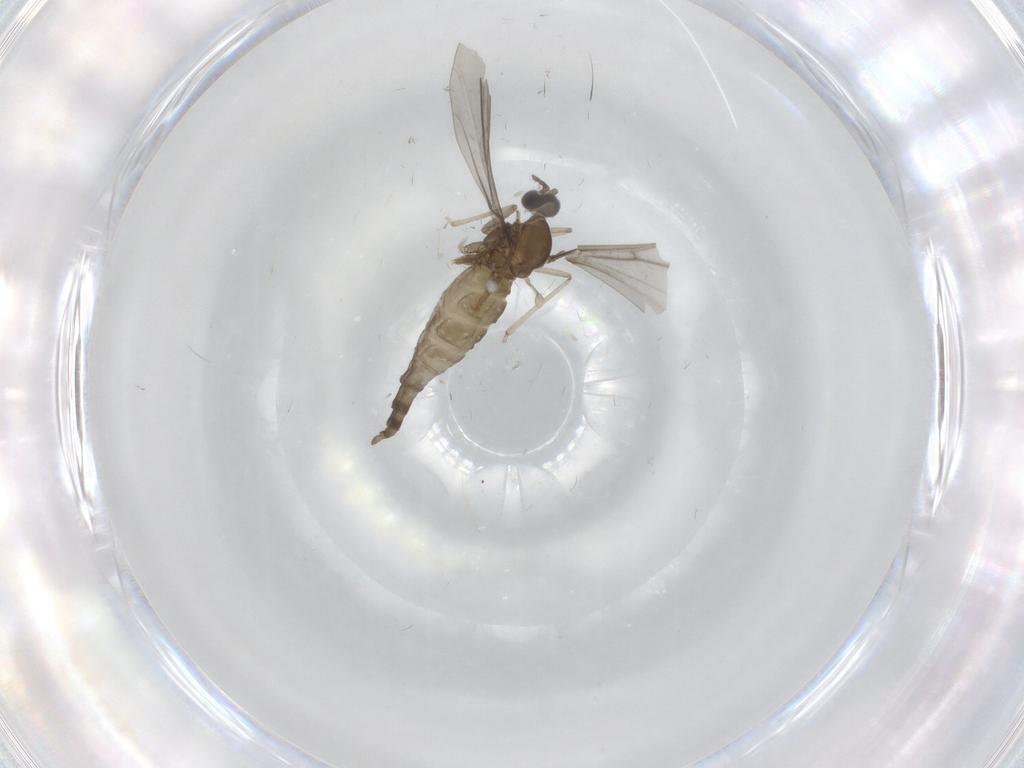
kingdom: Animalia
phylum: Arthropoda
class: Insecta
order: Diptera
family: Ceratopogonidae
